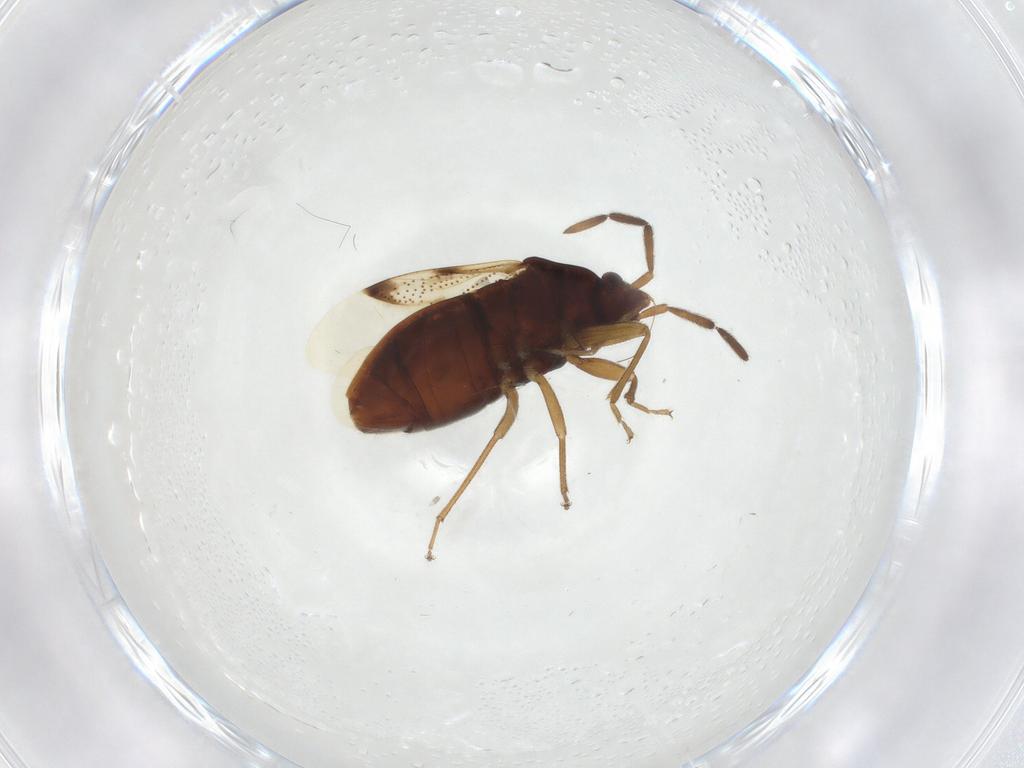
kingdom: Animalia
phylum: Arthropoda
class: Insecta
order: Hemiptera
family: Rhyparochromidae
